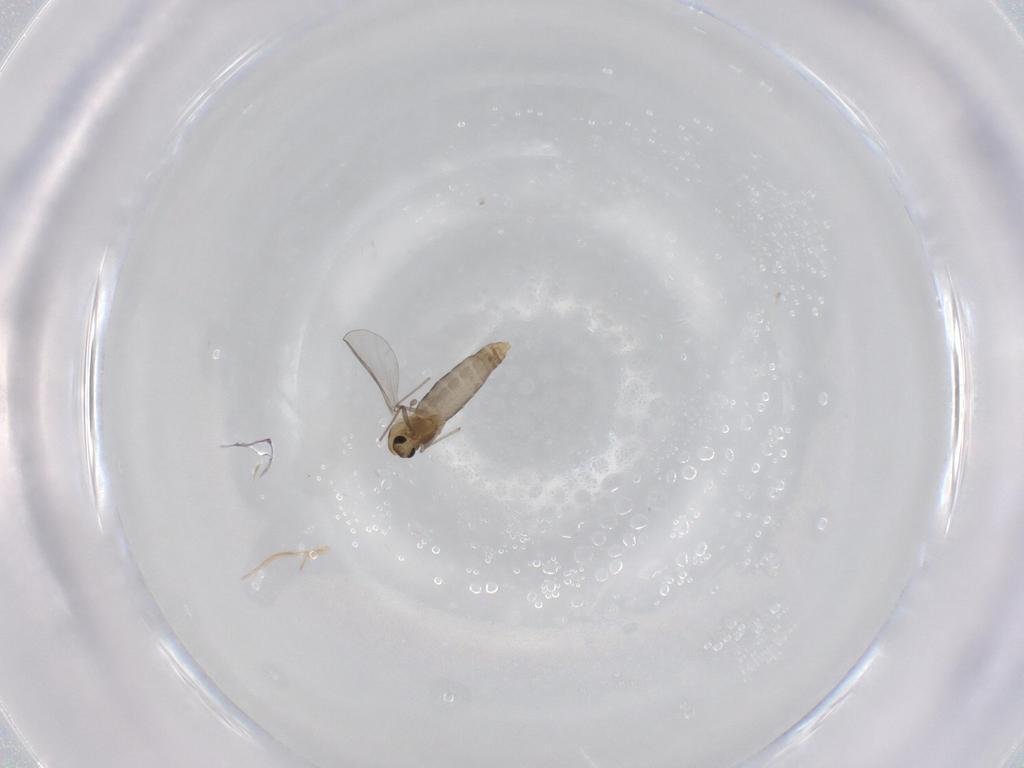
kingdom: Animalia
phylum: Arthropoda
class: Insecta
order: Diptera
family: Chironomidae
